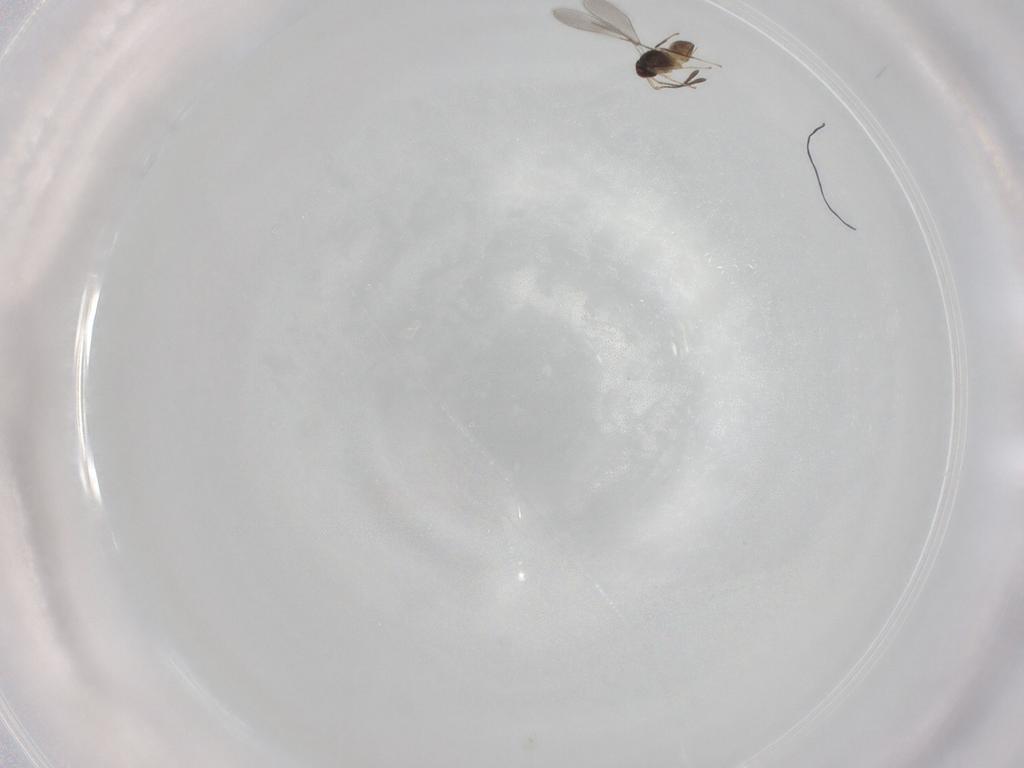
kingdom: Animalia
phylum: Arthropoda
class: Insecta
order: Hymenoptera
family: Mymaridae
